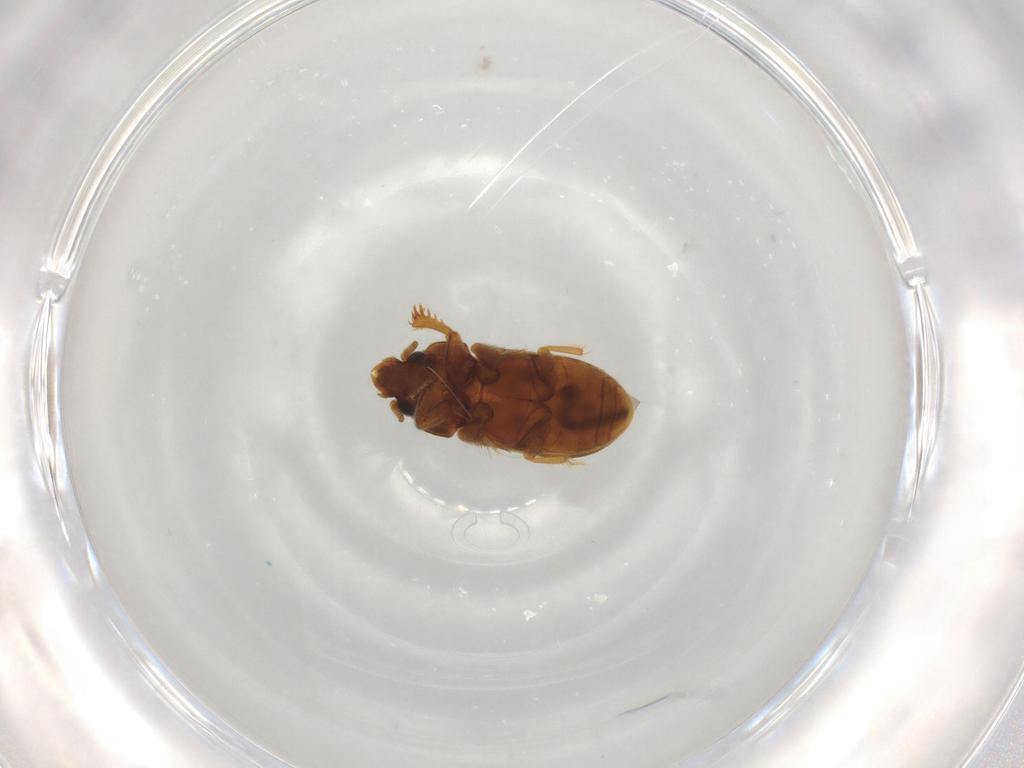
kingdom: Animalia
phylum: Arthropoda
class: Insecta
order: Coleoptera
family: Heteroceridae
